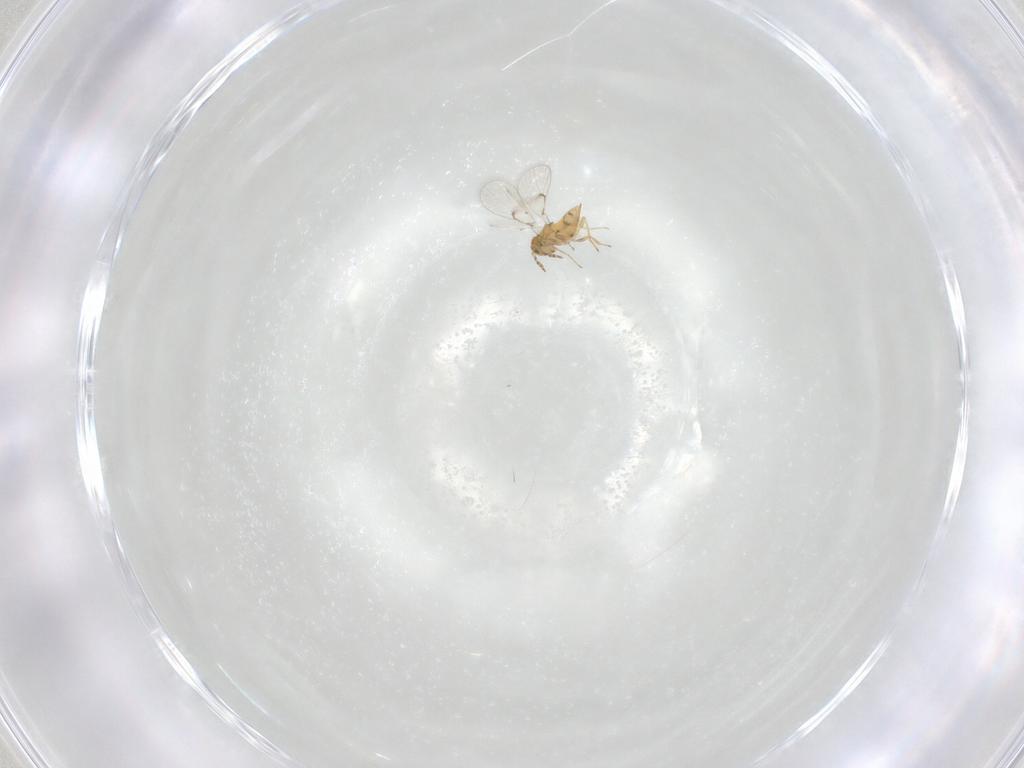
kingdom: Animalia
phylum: Arthropoda
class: Insecta
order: Hymenoptera
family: Trichogrammatidae
